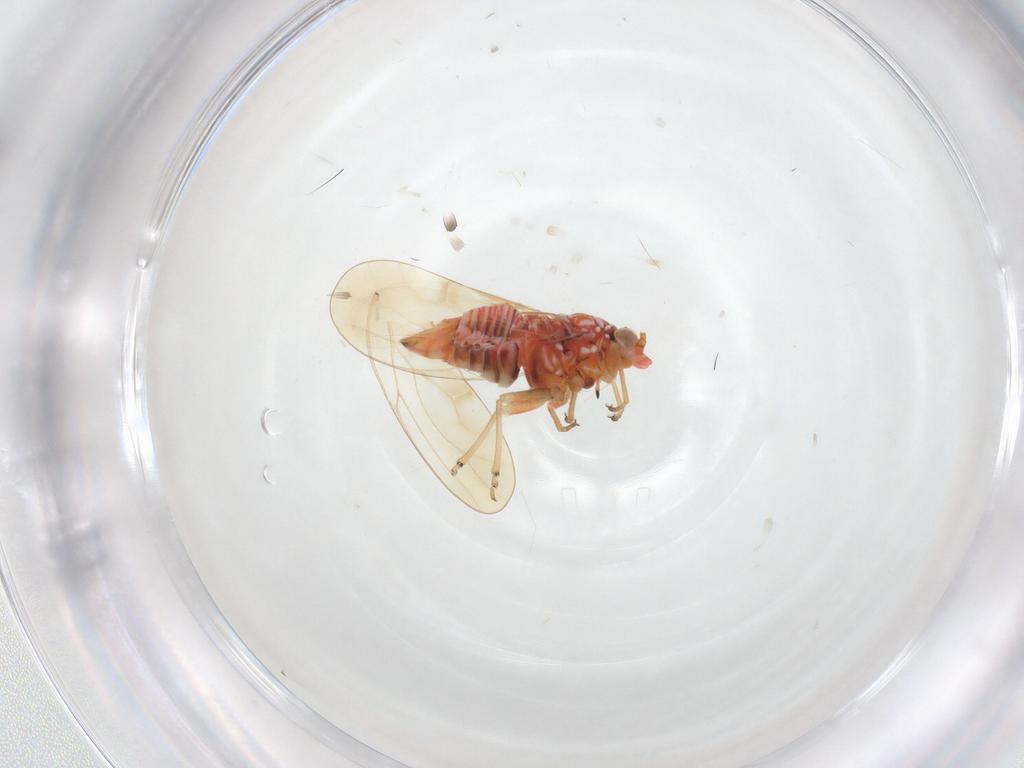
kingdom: Animalia
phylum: Arthropoda
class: Insecta
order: Hemiptera
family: Psyllidae
